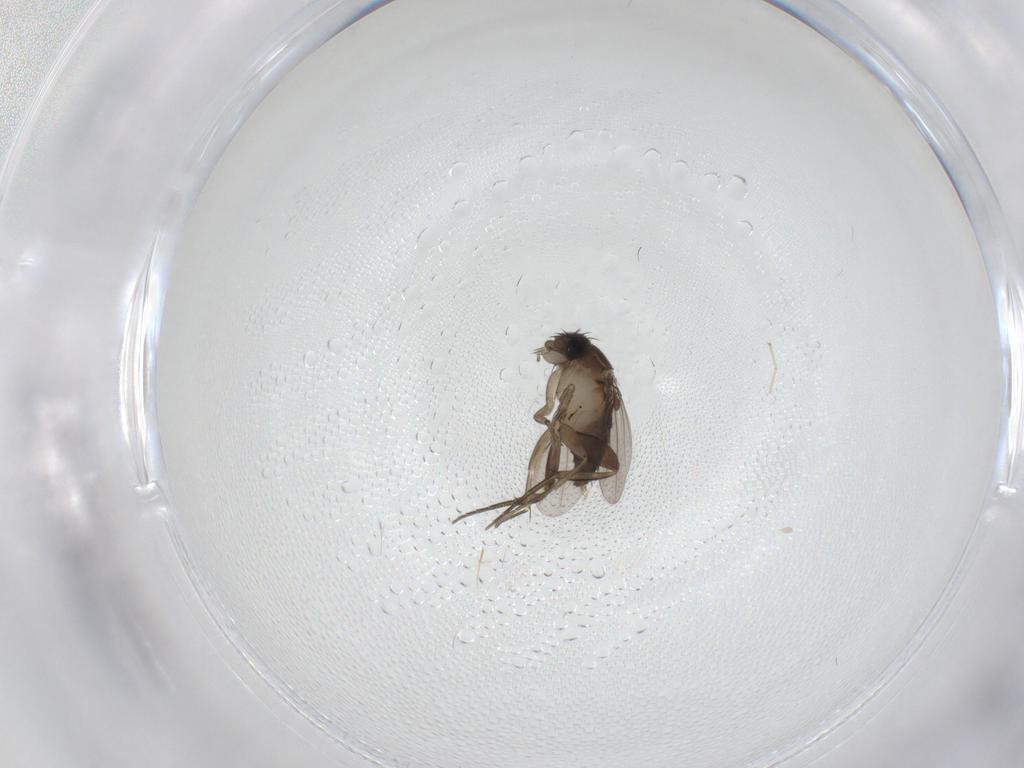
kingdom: Animalia
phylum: Arthropoda
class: Insecta
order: Diptera
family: Phoridae
